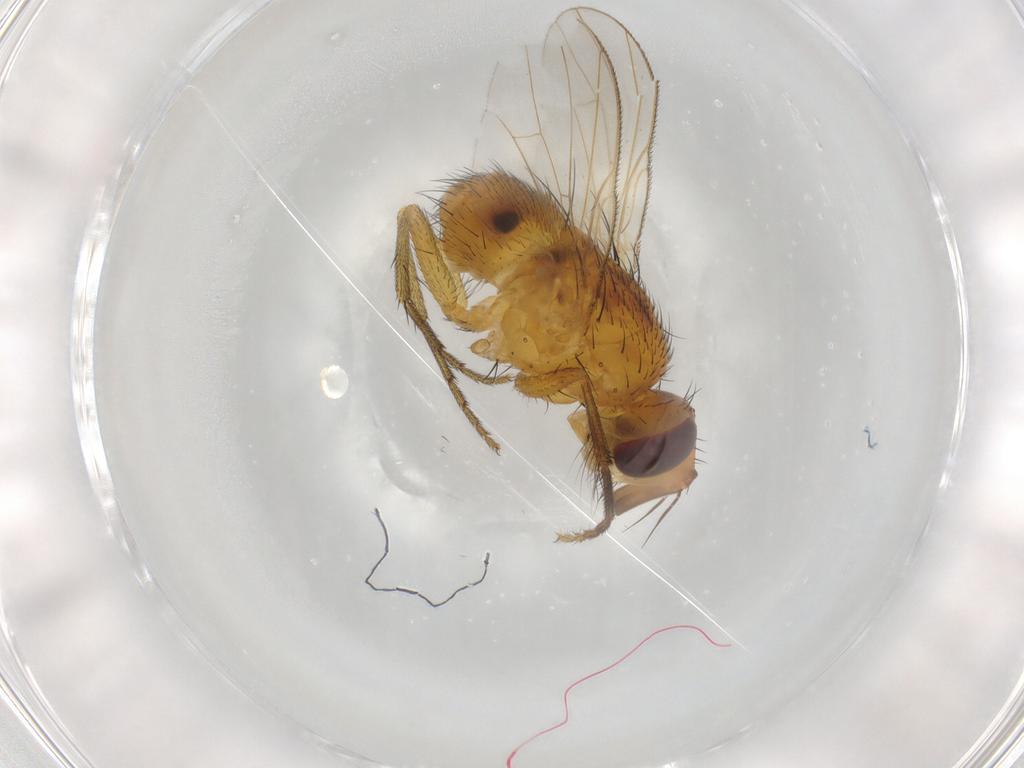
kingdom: Animalia
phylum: Arthropoda
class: Insecta
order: Diptera
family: Muscidae
